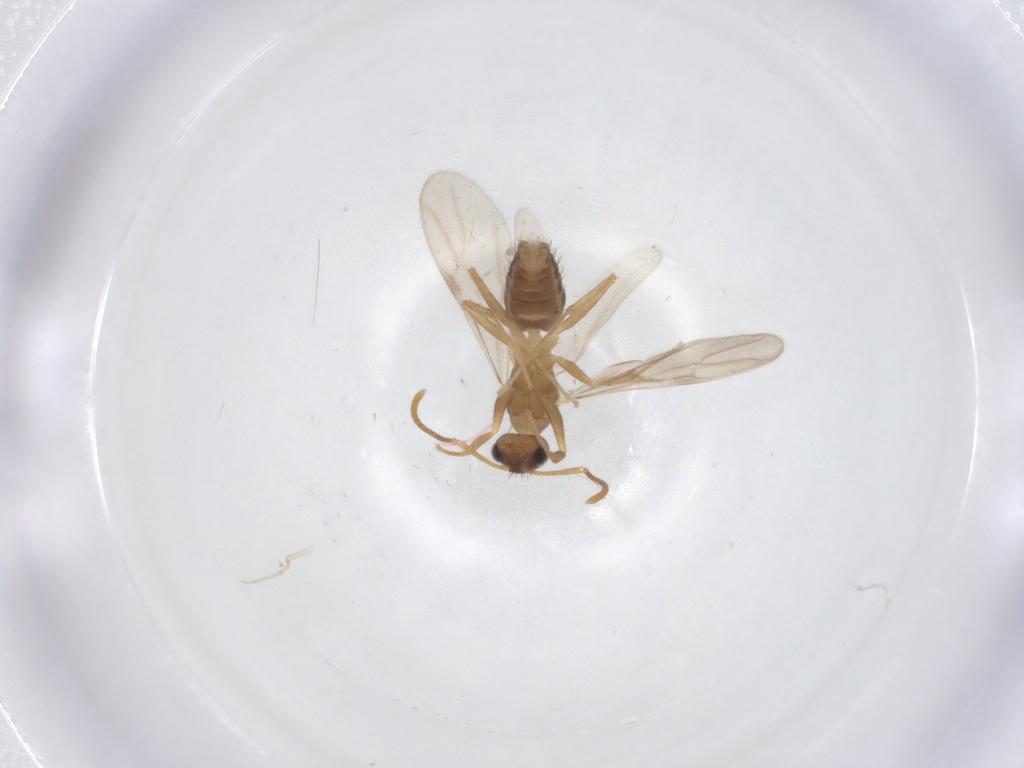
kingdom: Animalia
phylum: Arthropoda
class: Insecta
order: Hymenoptera
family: Formicidae
